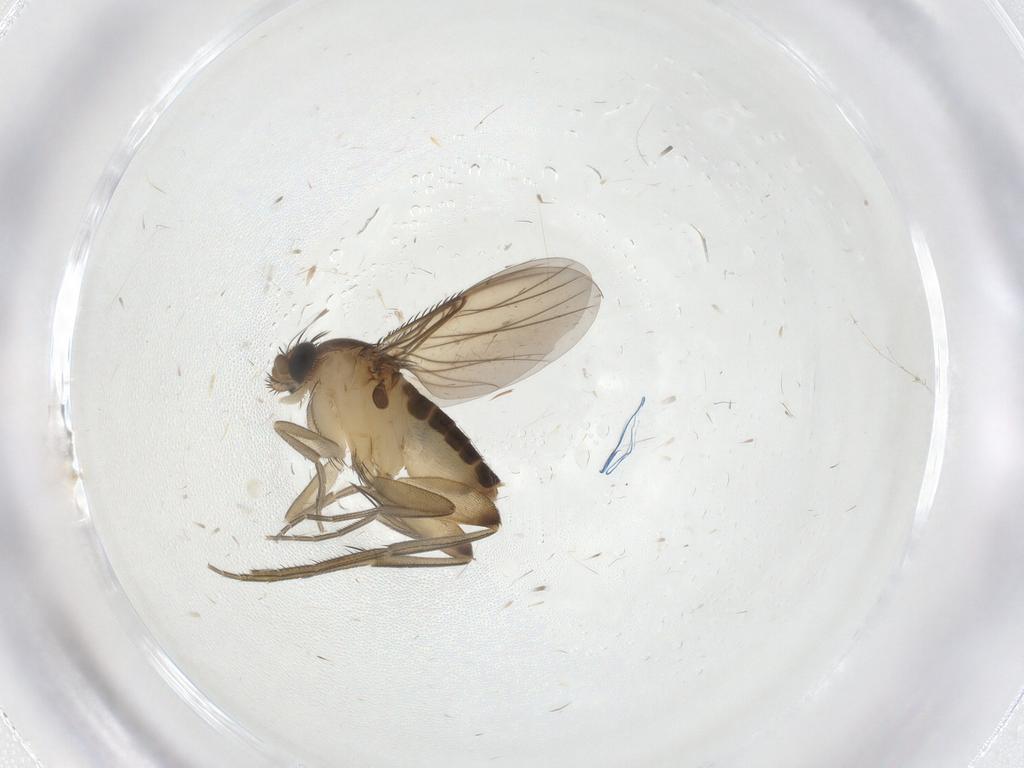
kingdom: Animalia
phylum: Arthropoda
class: Insecta
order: Diptera
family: Phoridae
